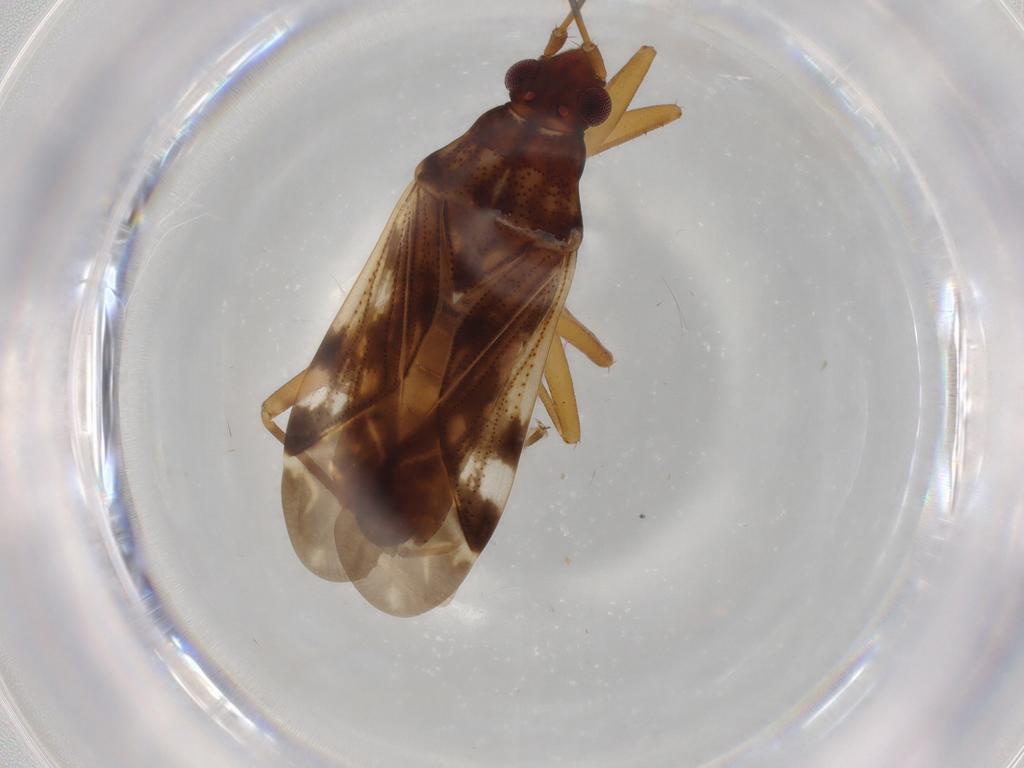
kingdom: Animalia
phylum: Arthropoda
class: Insecta
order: Hemiptera
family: Rhyparochromidae
